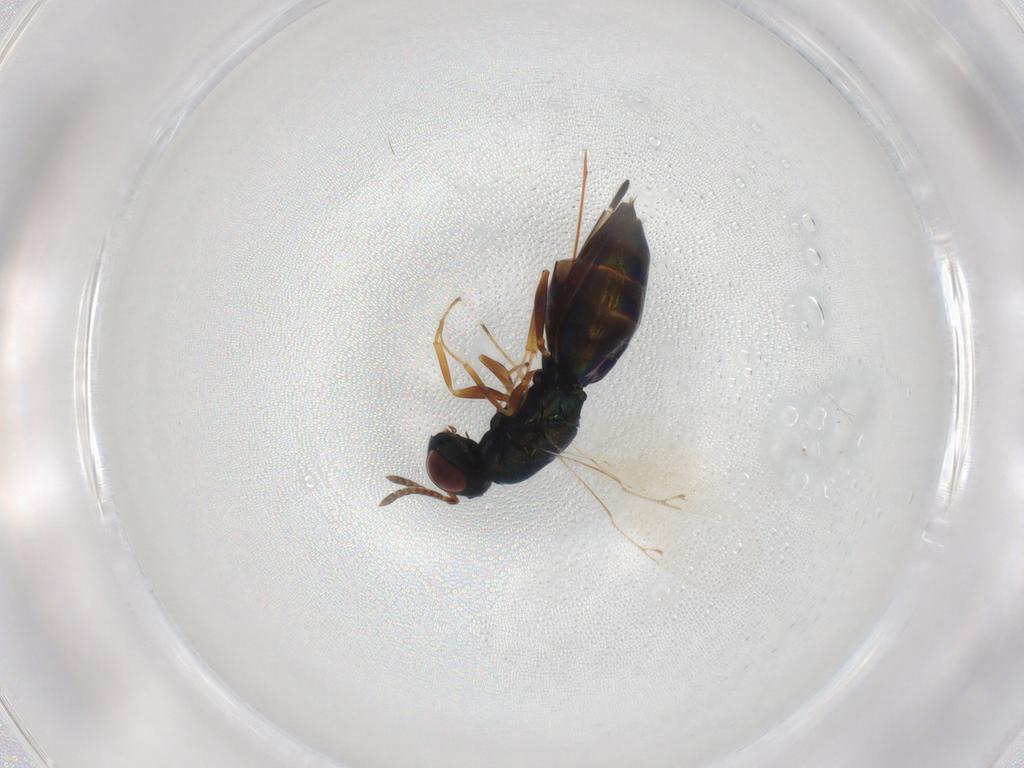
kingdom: Animalia
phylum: Arthropoda
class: Insecta
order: Hymenoptera
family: Pteromalidae
